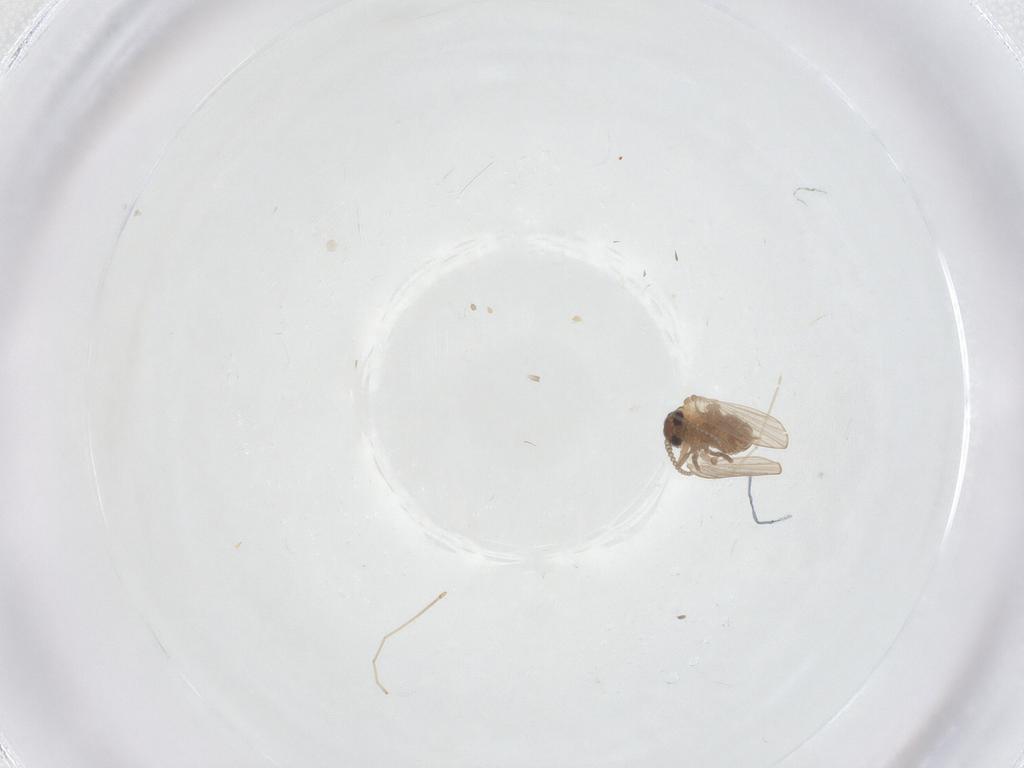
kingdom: Animalia
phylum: Arthropoda
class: Insecta
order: Diptera
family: Psychodidae
